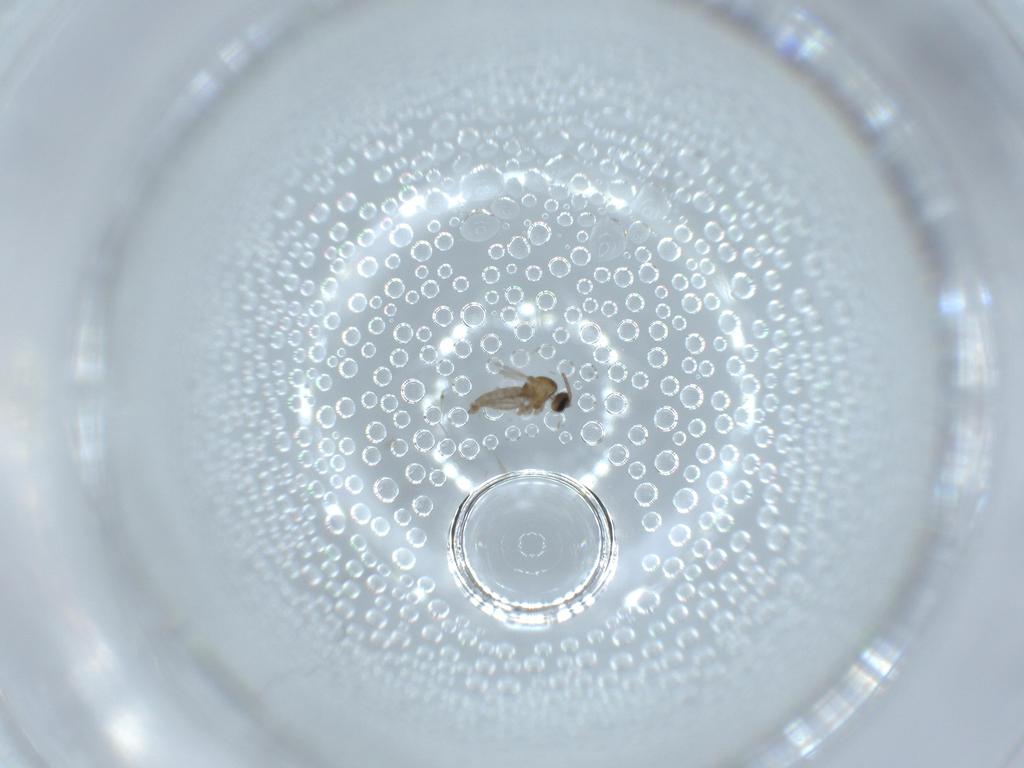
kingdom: Animalia
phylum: Arthropoda
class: Insecta
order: Diptera
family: Cecidomyiidae
